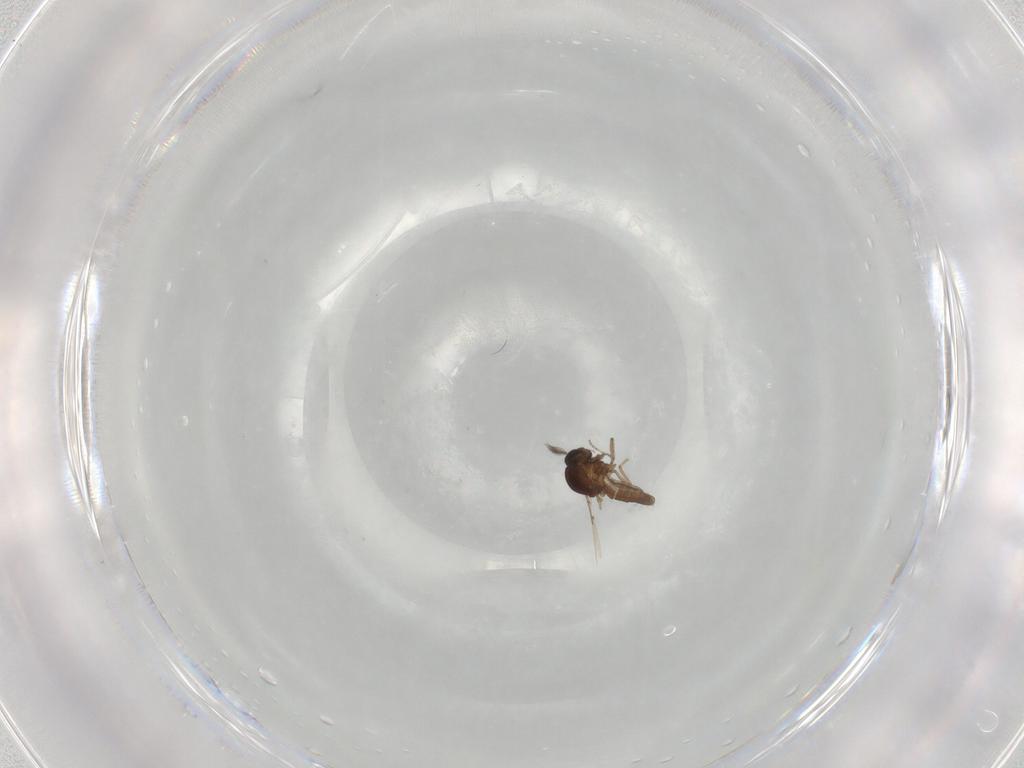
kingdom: Animalia
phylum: Arthropoda
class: Insecta
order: Diptera
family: Ceratopogonidae
